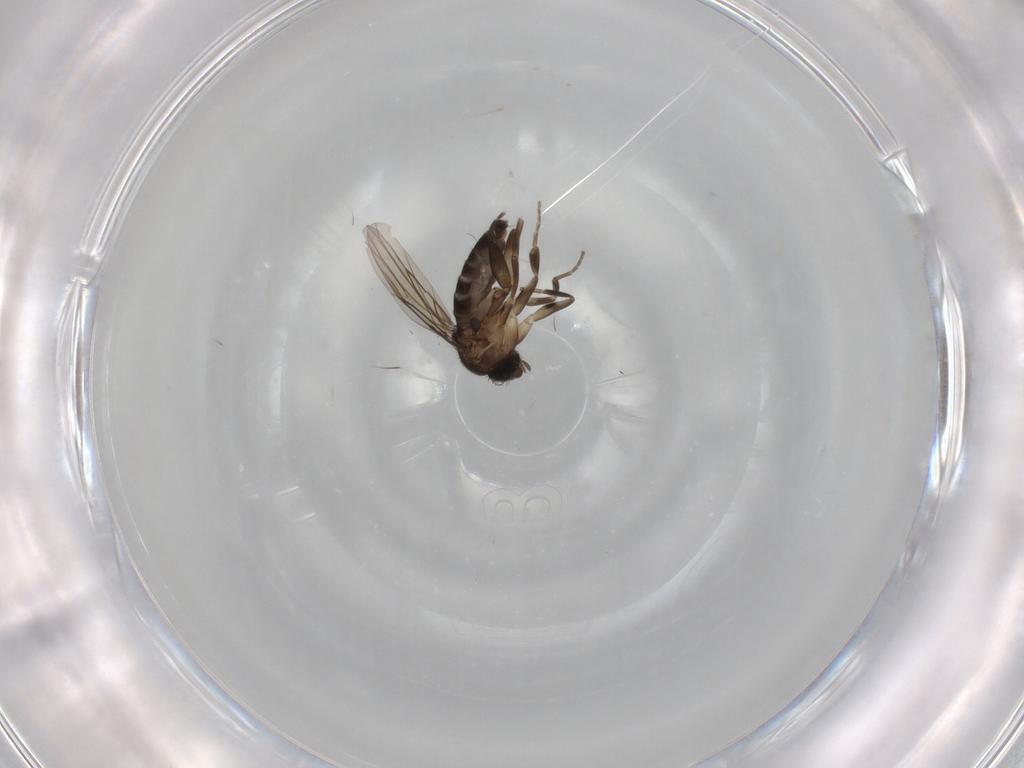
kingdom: Animalia
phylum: Arthropoda
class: Insecta
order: Diptera
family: Phoridae
